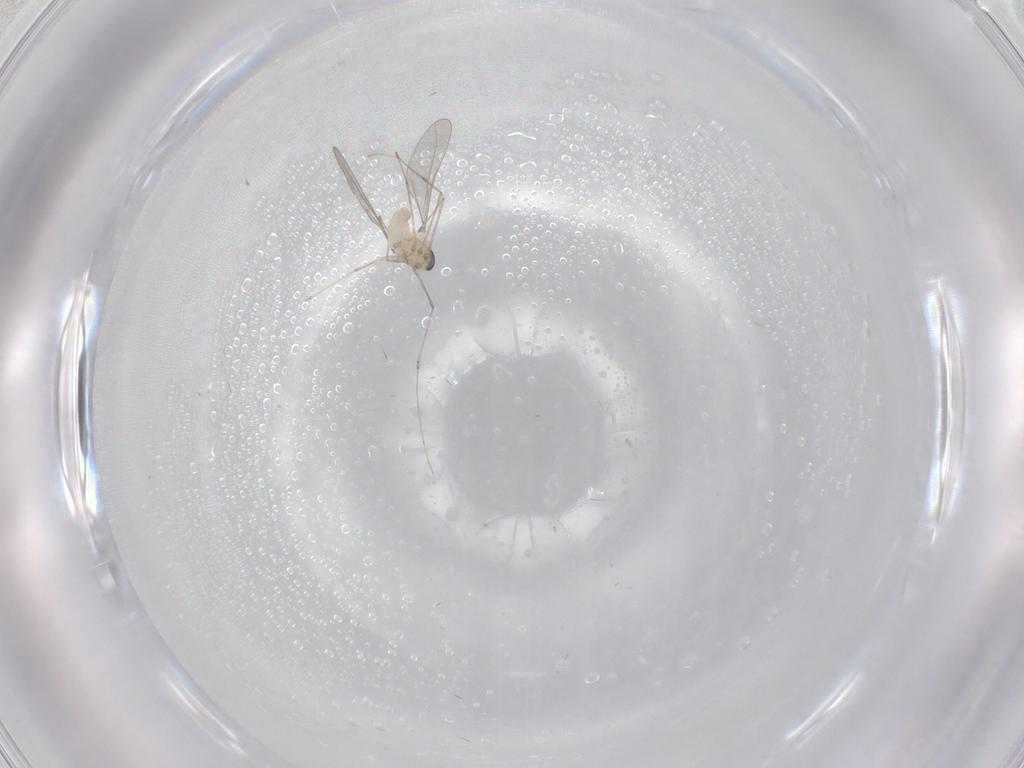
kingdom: Animalia
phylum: Arthropoda
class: Insecta
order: Diptera
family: Cecidomyiidae
